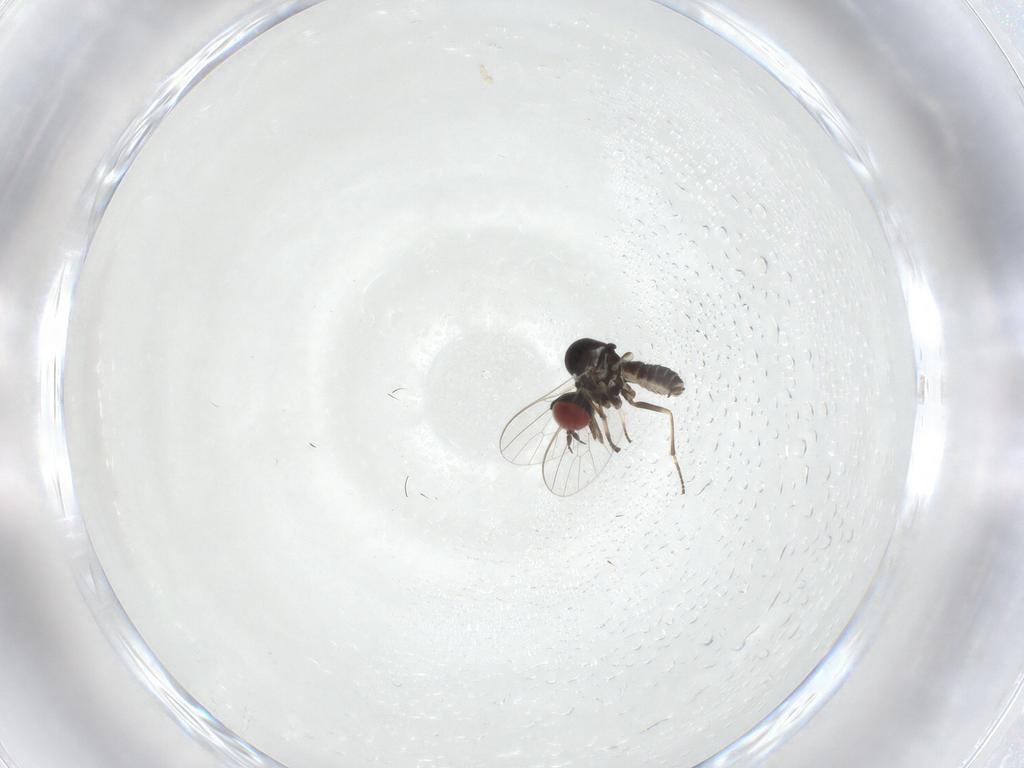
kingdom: Animalia
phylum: Arthropoda
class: Insecta
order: Diptera
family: Mythicomyiidae
